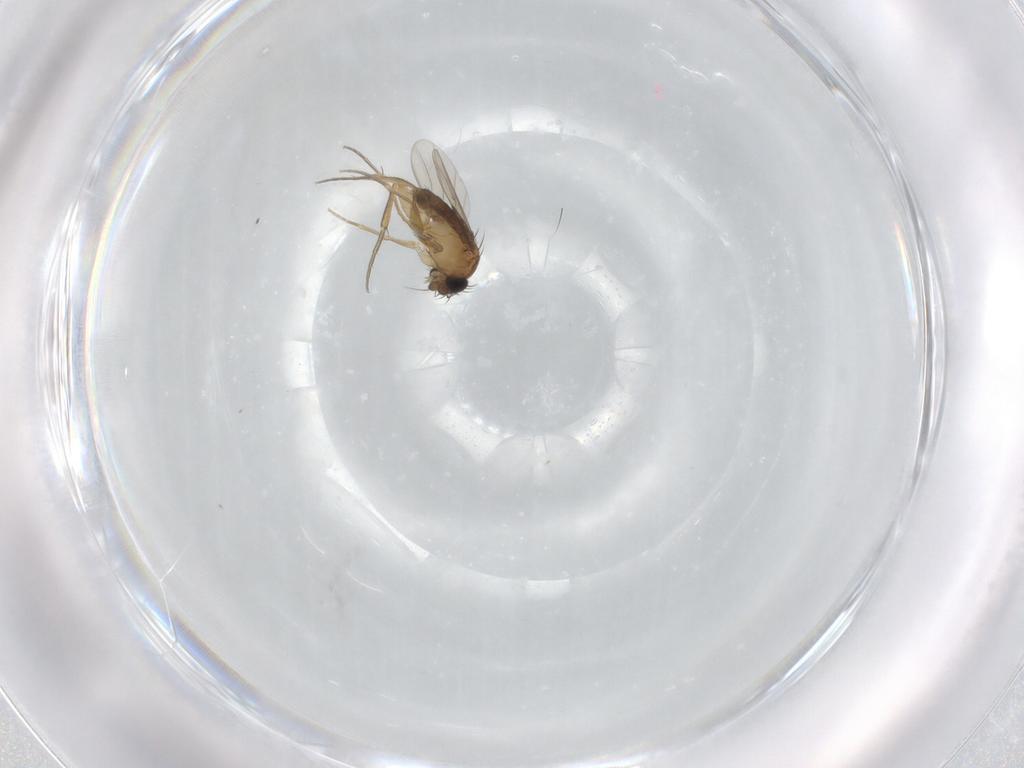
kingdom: Animalia
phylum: Arthropoda
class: Insecta
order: Diptera
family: Phoridae
